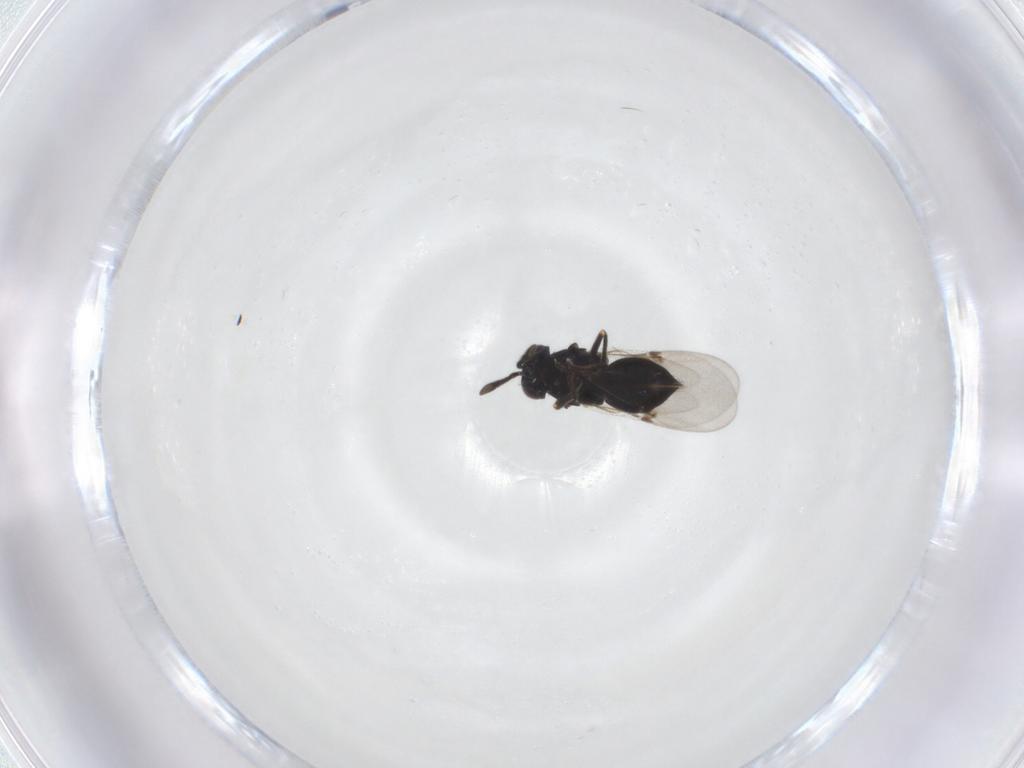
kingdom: Animalia
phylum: Arthropoda
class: Insecta
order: Hymenoptera
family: Encyrtidae
